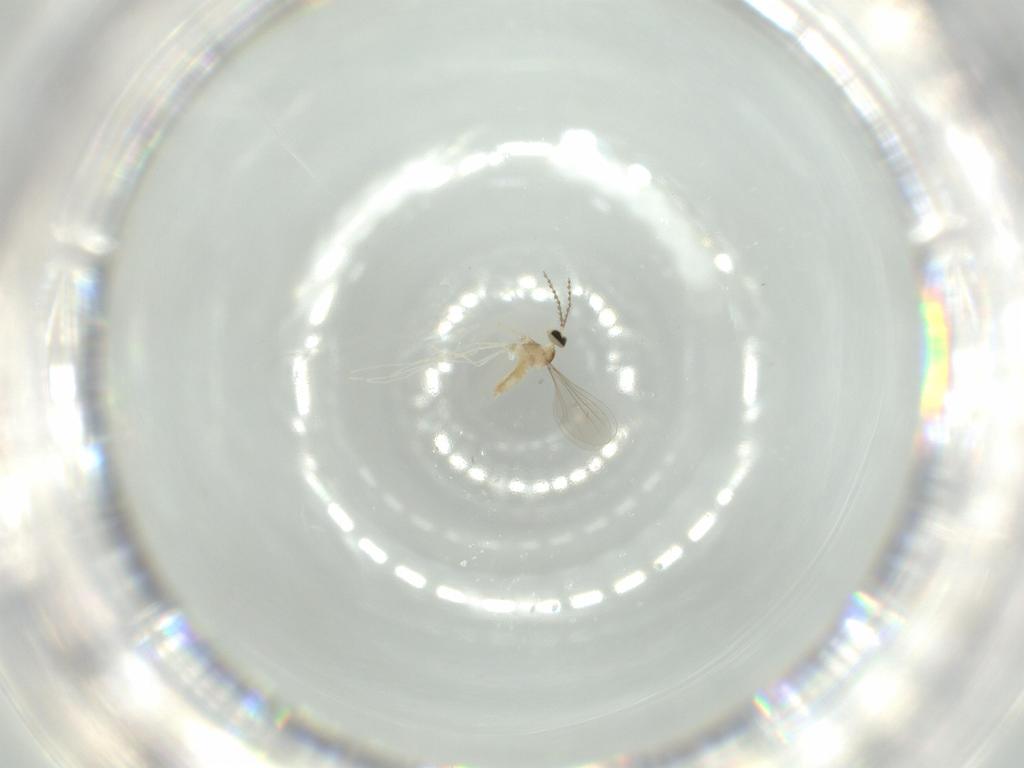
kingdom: Animalia
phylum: Arthropoda
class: Insecta
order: Diptera
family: Cecidomyiidae
